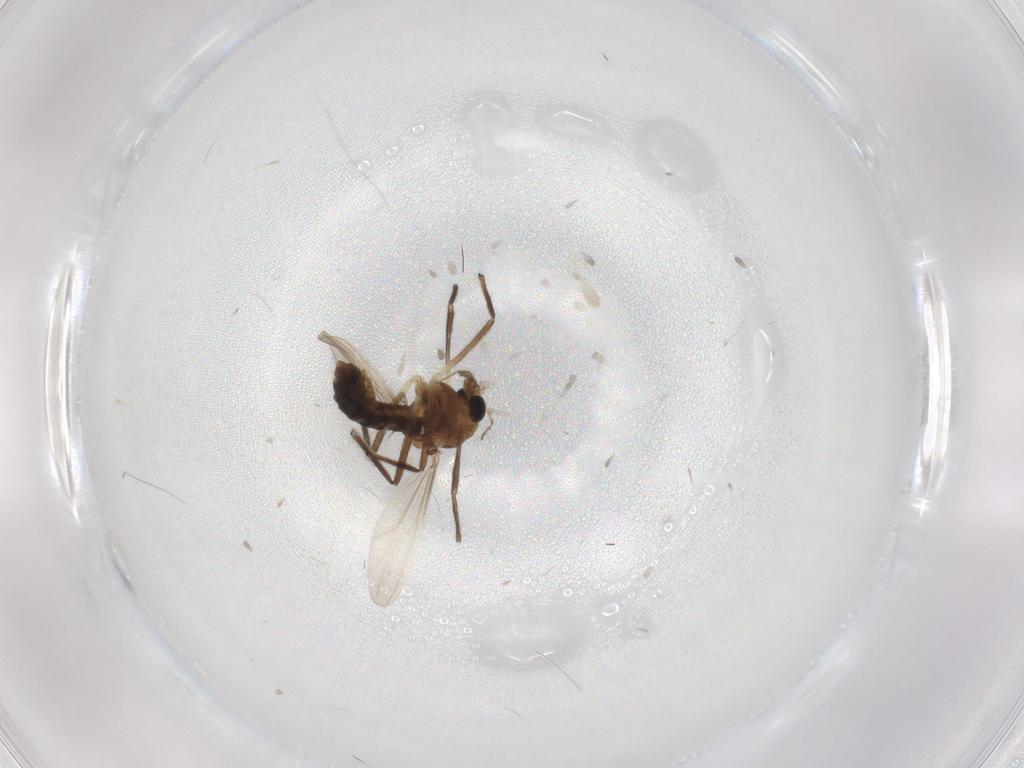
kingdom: Animalia
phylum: Arthropoda
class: Insecta
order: Diptera
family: Chironomidae
